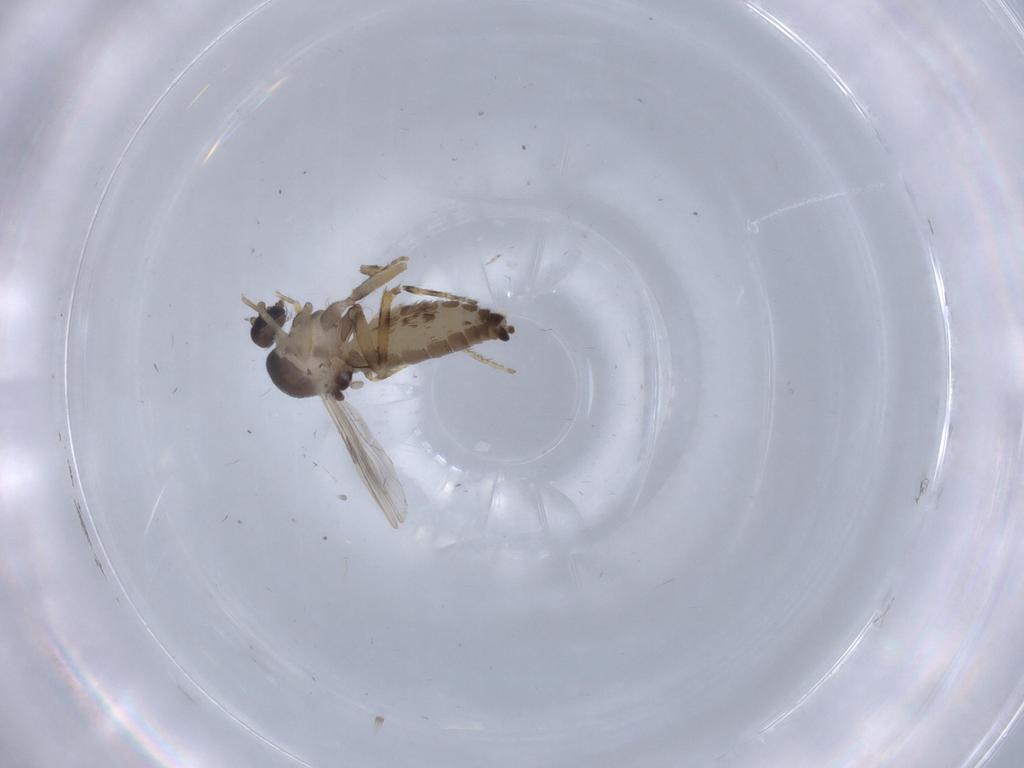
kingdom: Animalia
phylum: Arthropoda
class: Insecta
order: Diptera
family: Ceratopogonidae
